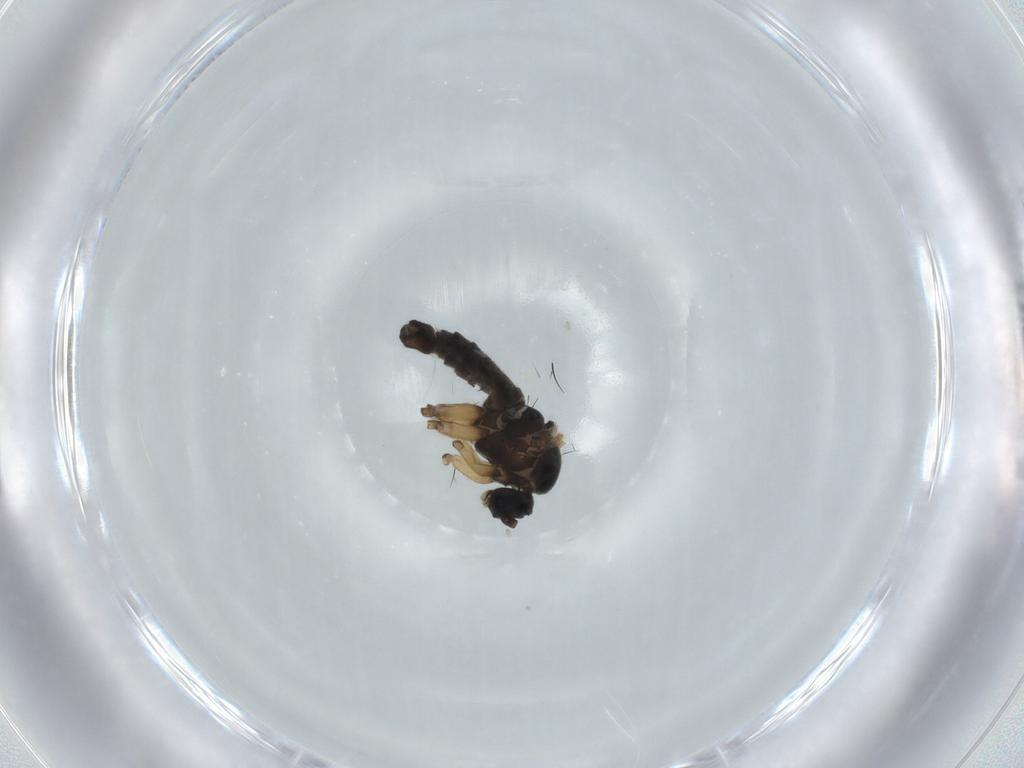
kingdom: Animalia
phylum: Arthropoda
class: Insecta
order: Diptera
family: Sciaridae
